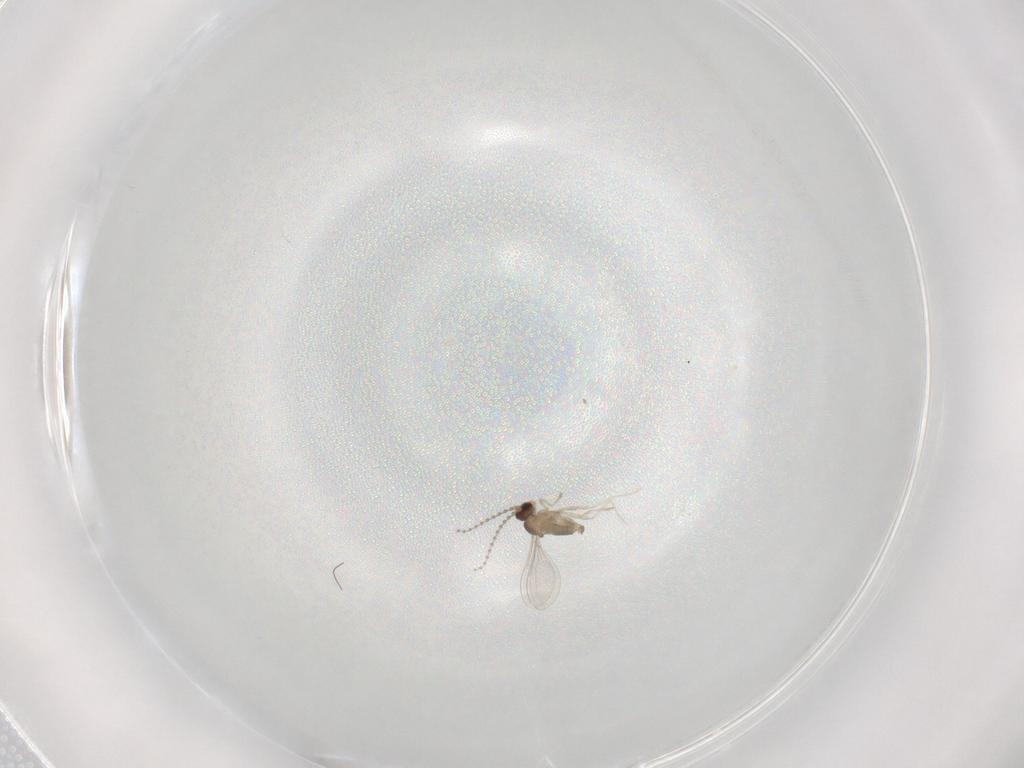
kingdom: Animalia
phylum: Arthropoda
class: Insecta
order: Diptera
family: Cecidomyiidae
